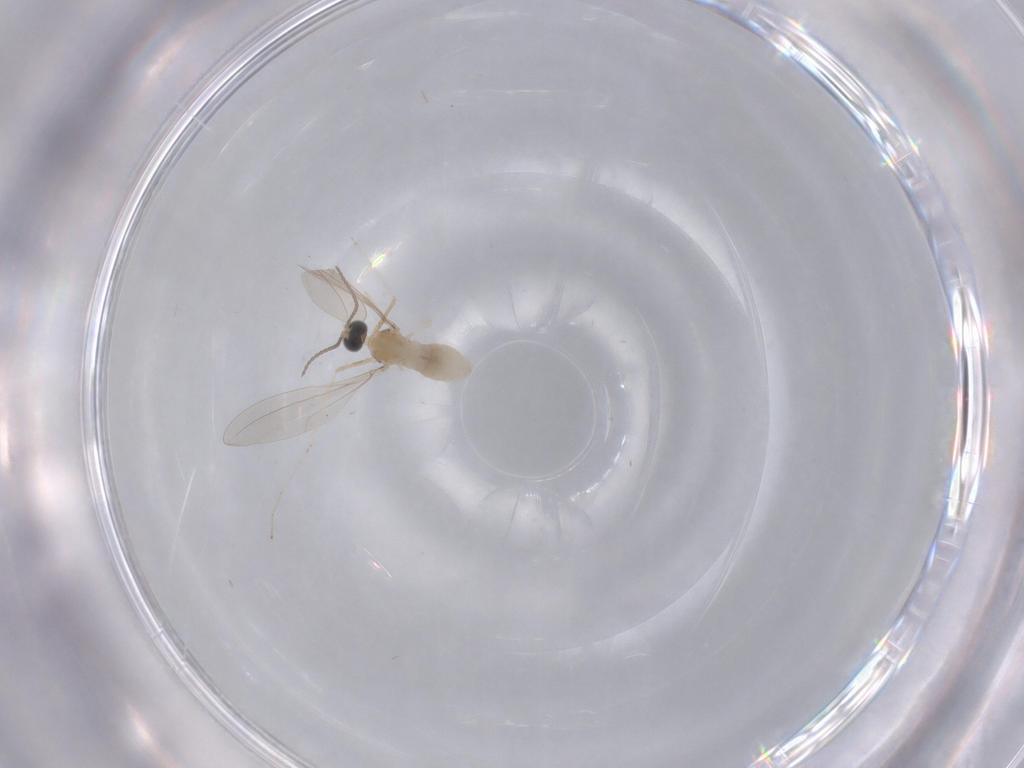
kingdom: Animalia
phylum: Arthropoda
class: Insecta
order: Diptera
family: Cecidomyiidae
